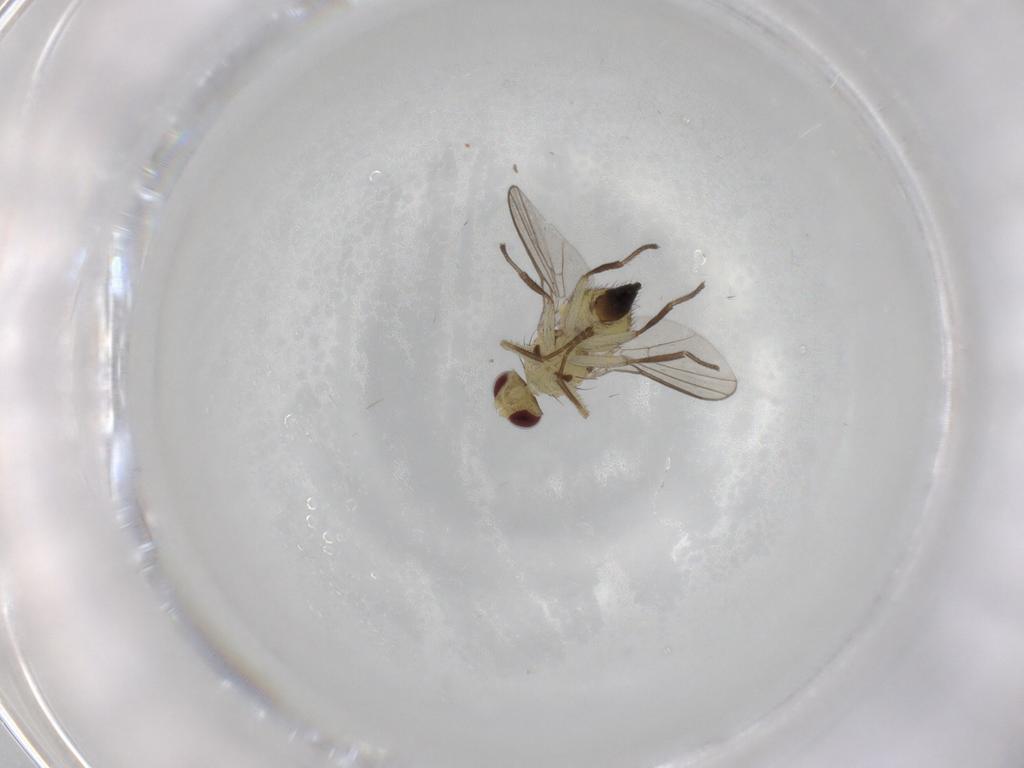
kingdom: Animalia
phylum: Arthropoda
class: Insecta
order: Diptera
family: Agromyzidae
